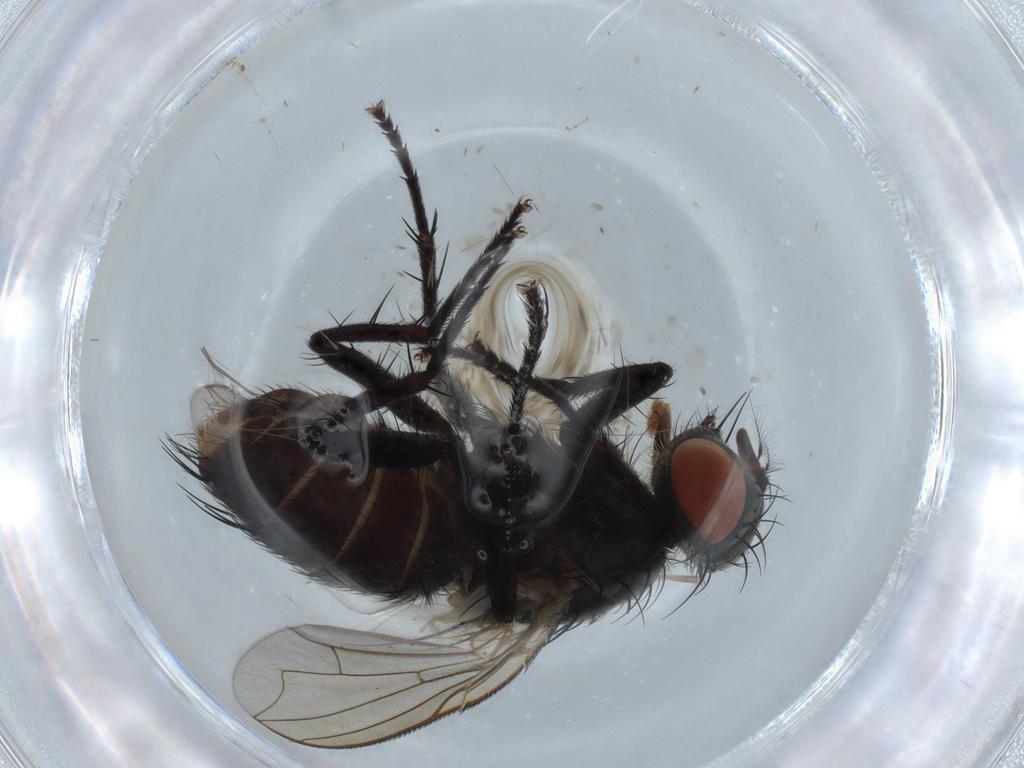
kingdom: Animalia
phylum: Arthropoda
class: Insecta
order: Diptera
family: Sarcophagidae
